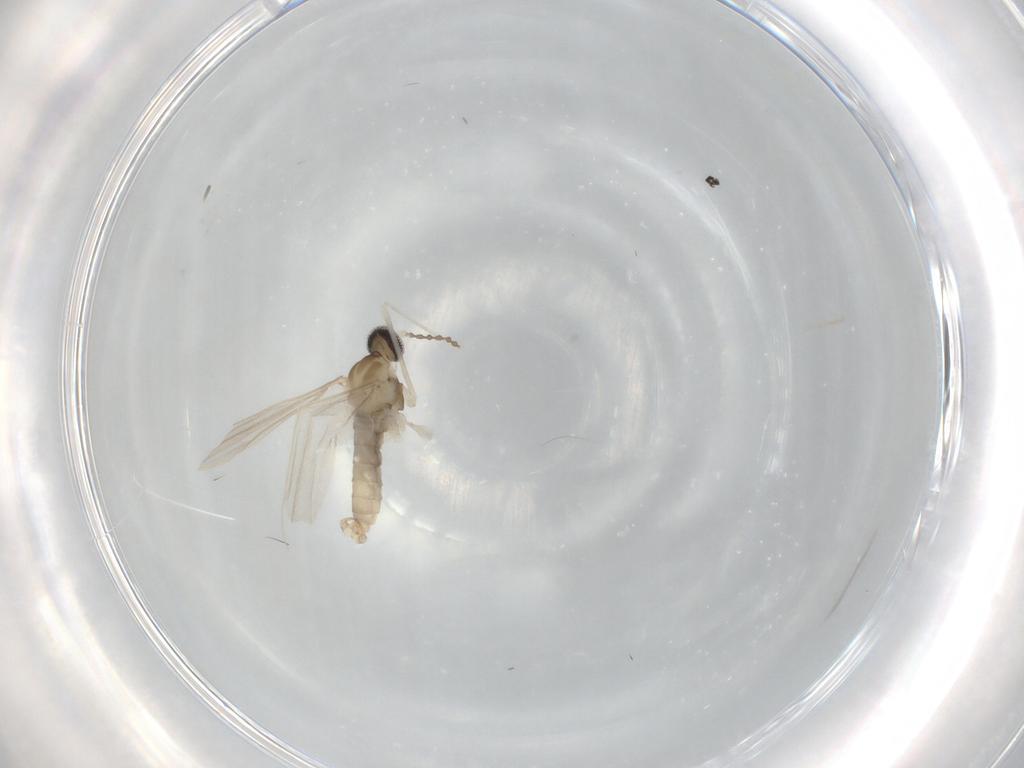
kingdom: Animalia
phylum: Arthropoda
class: Insecta
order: Diptera
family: Cecidomyiidae
